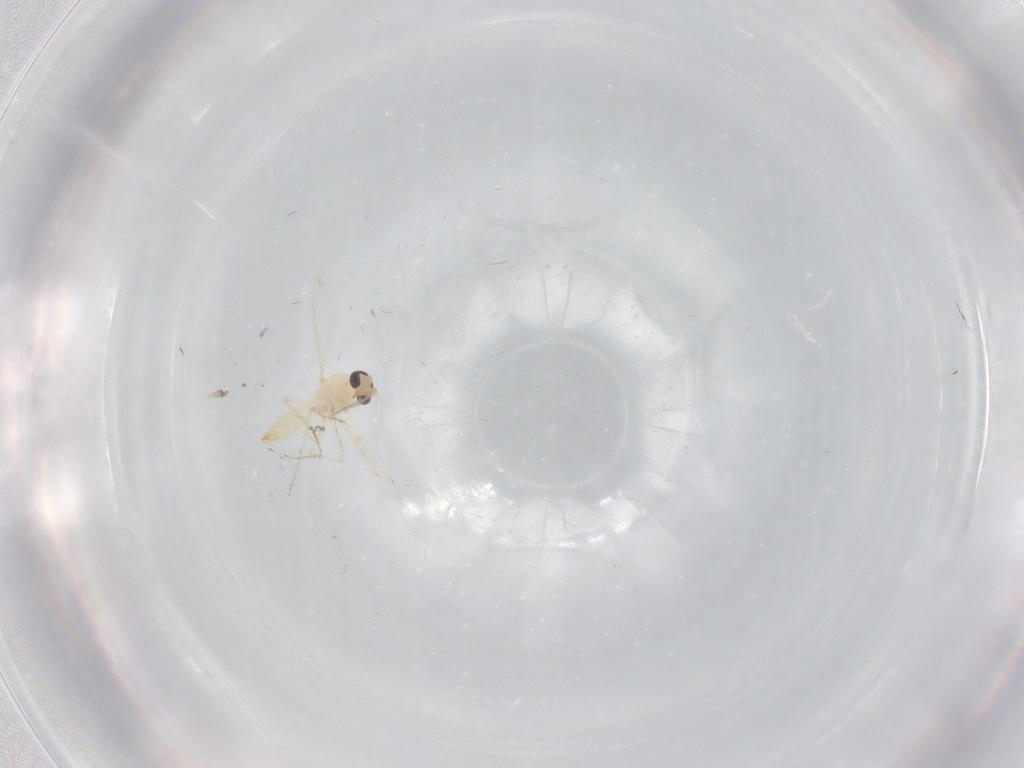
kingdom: Animalia
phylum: Arthropoda
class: Insecta
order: Diptera
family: Ceratopogonidae
